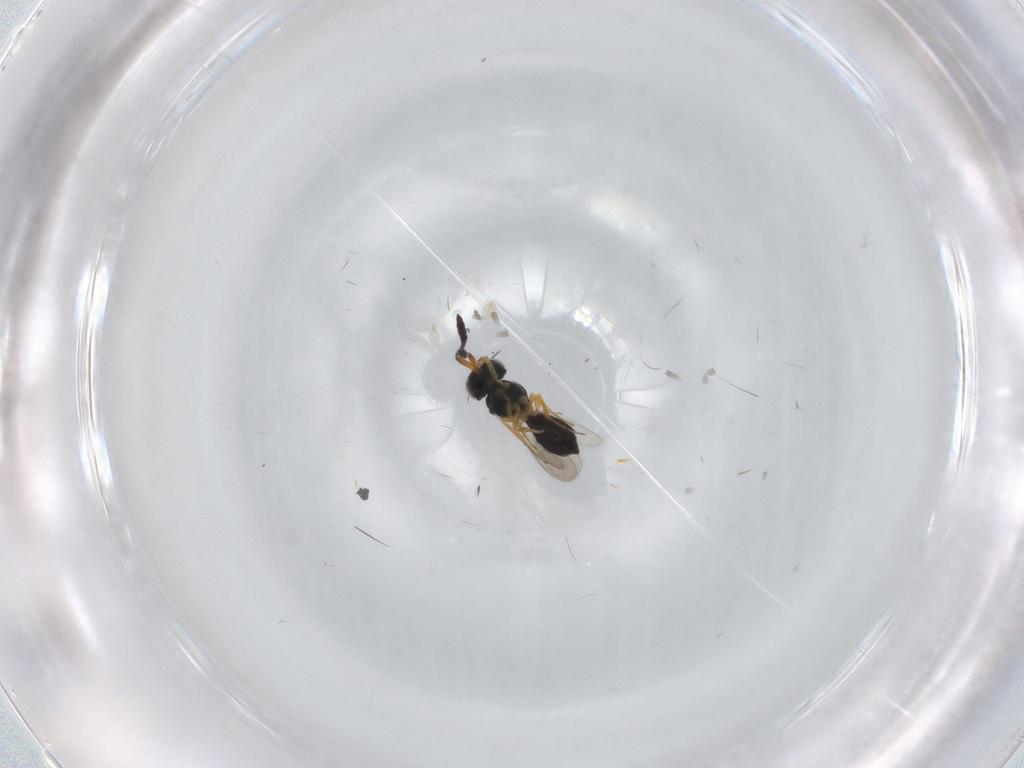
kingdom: Animalia
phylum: Arthropoda
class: Insecta
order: Hymenoptera
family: Scelionidae
